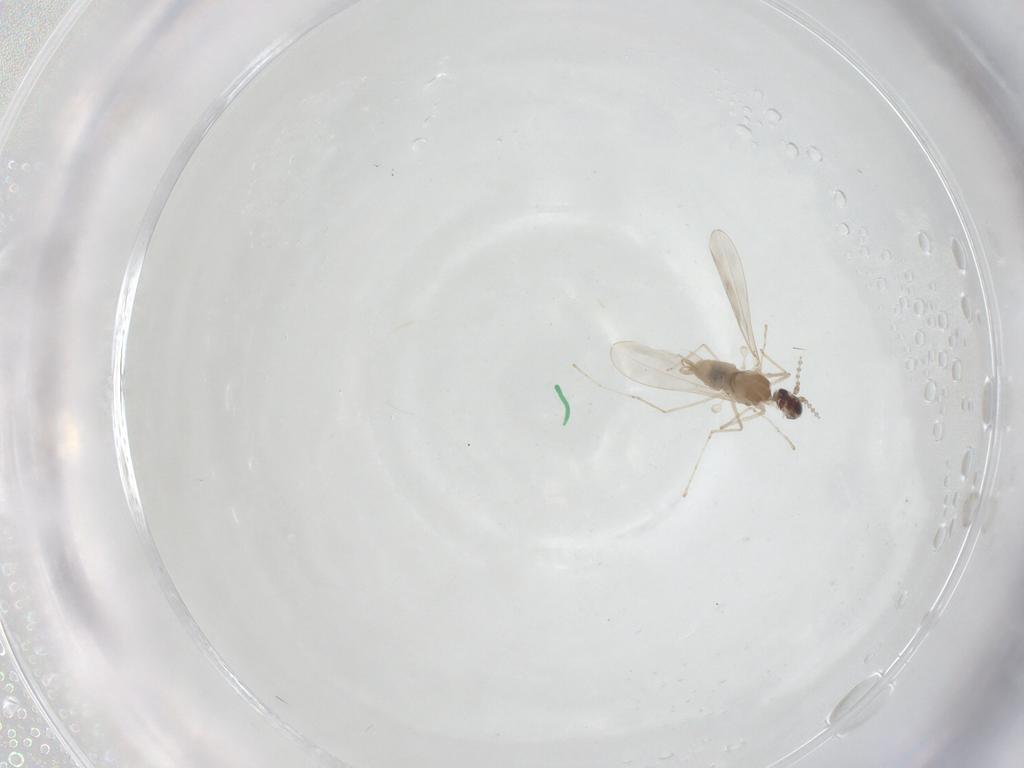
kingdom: Animalia
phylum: Arthropoda
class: Insecta
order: Diptera
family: Cecidomyiidae
